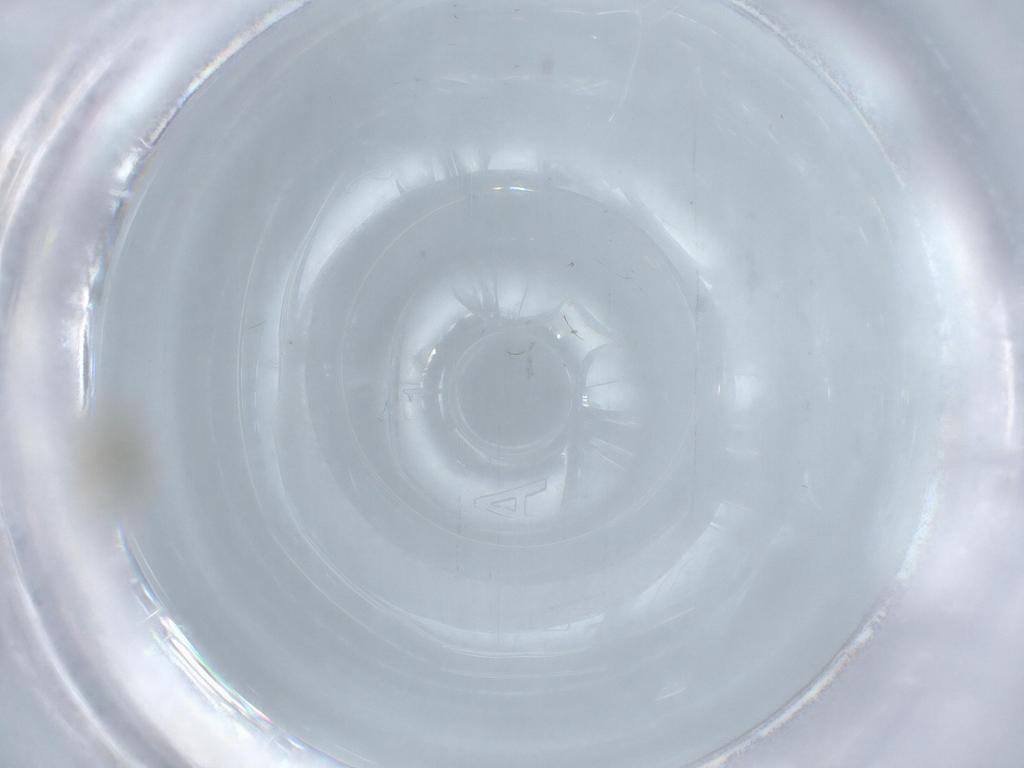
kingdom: Animalia
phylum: Arthropoda
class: Insecta
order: Diptera
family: Chironomidae
